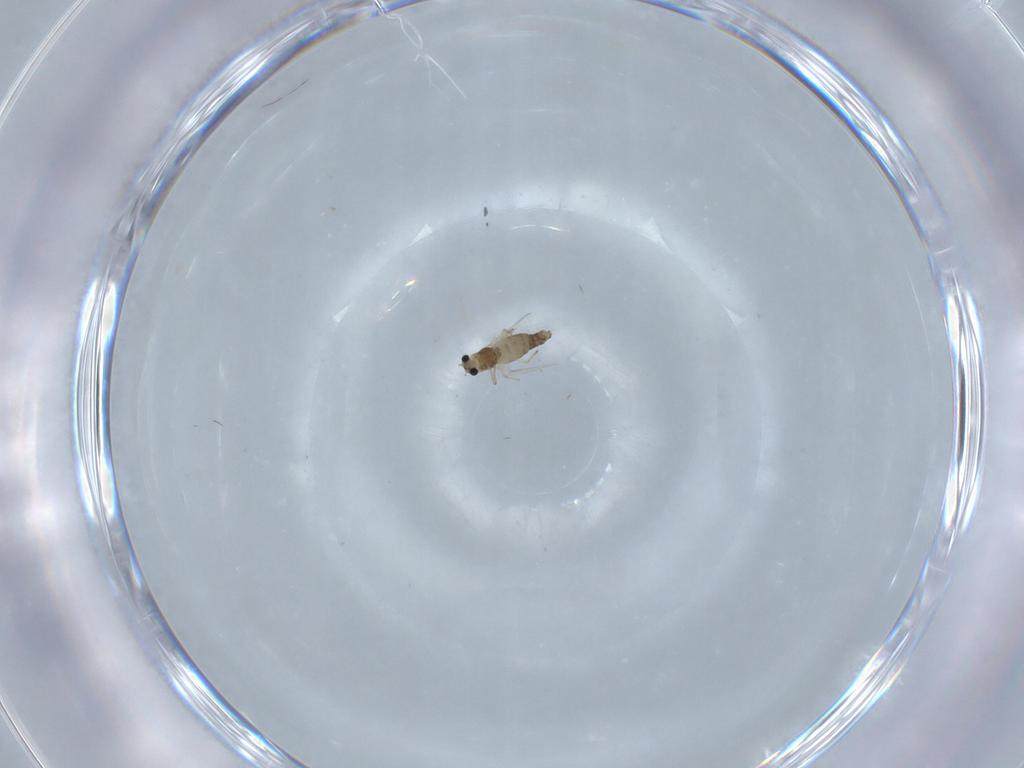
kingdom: Animalia
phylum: Arthropoda
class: Insecta
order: Diptera
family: Chironomidae
